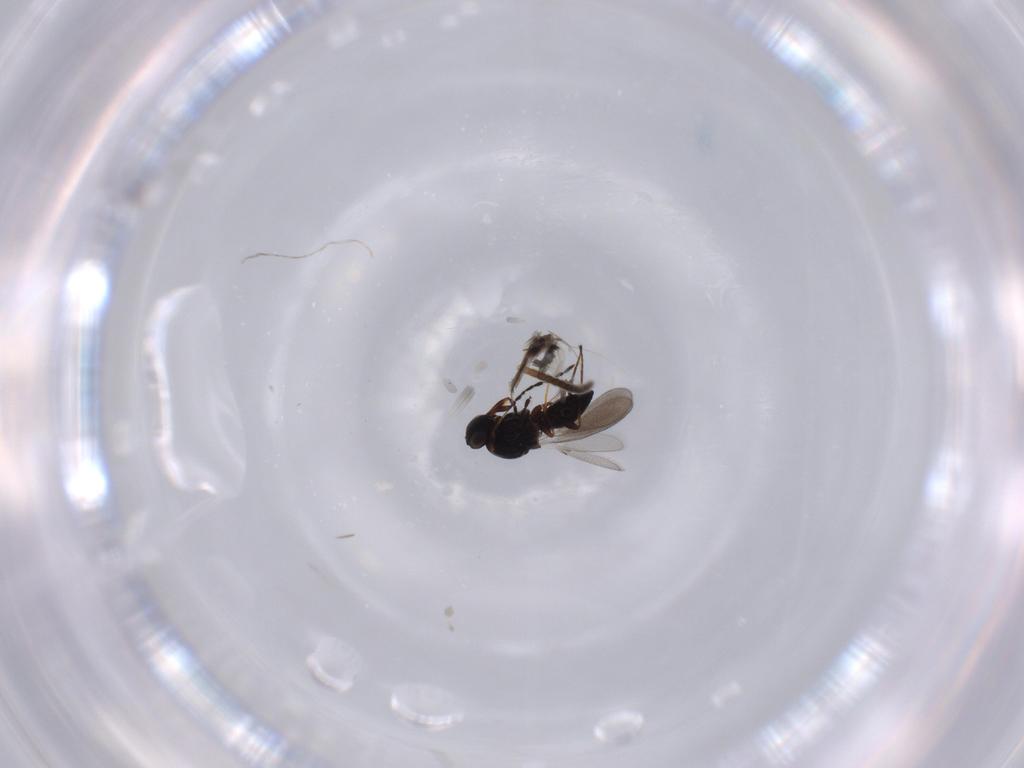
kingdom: Animalia
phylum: Arthropoda
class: Insecta
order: Hymenoptera
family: Platygastridae
